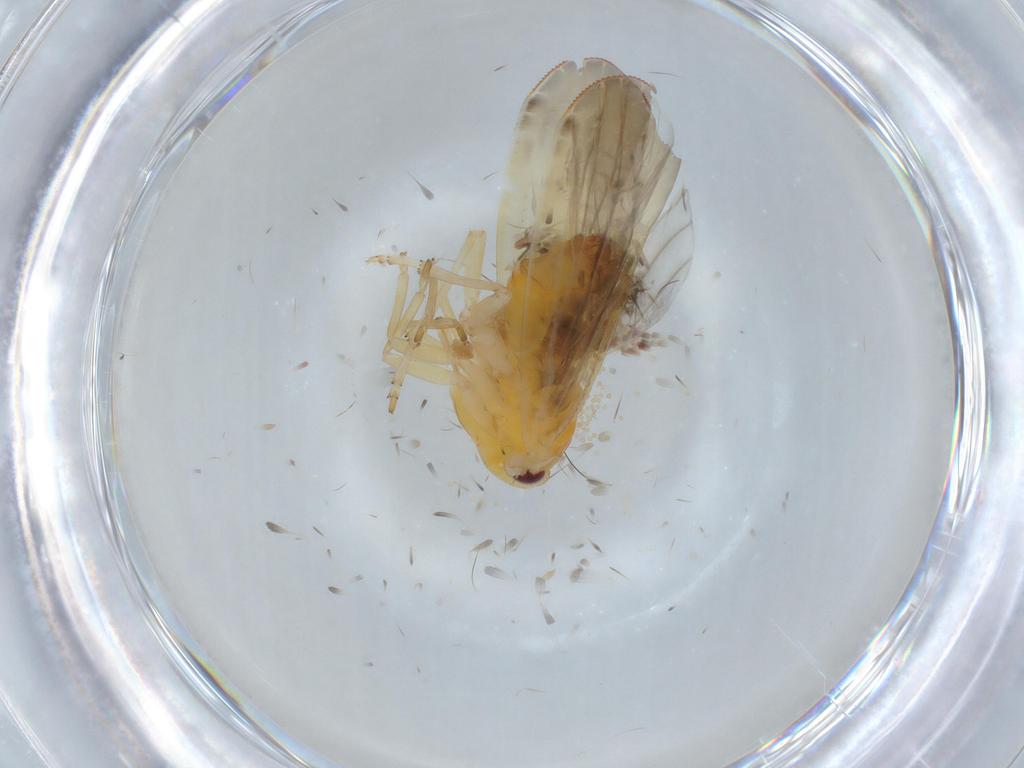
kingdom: Animalia
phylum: Arthropoda
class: Insecta
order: Hemiptera
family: Derbidae
